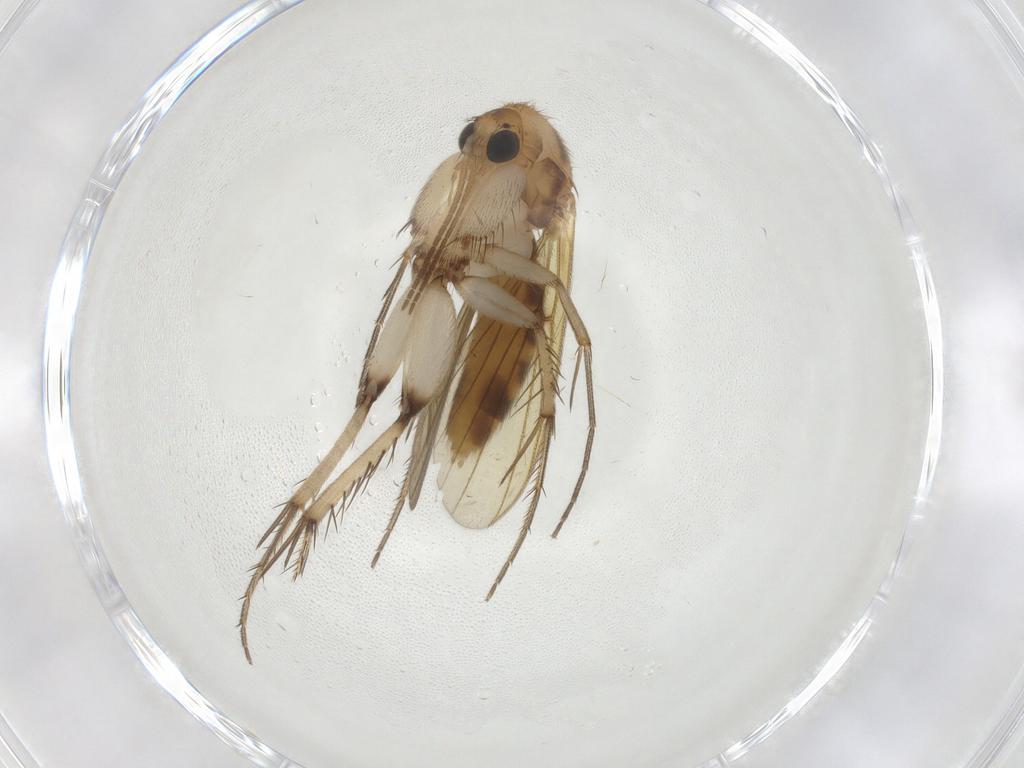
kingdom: Animalia
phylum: Arthropoda
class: Insecta
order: Diptera
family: Mycetophilidae
